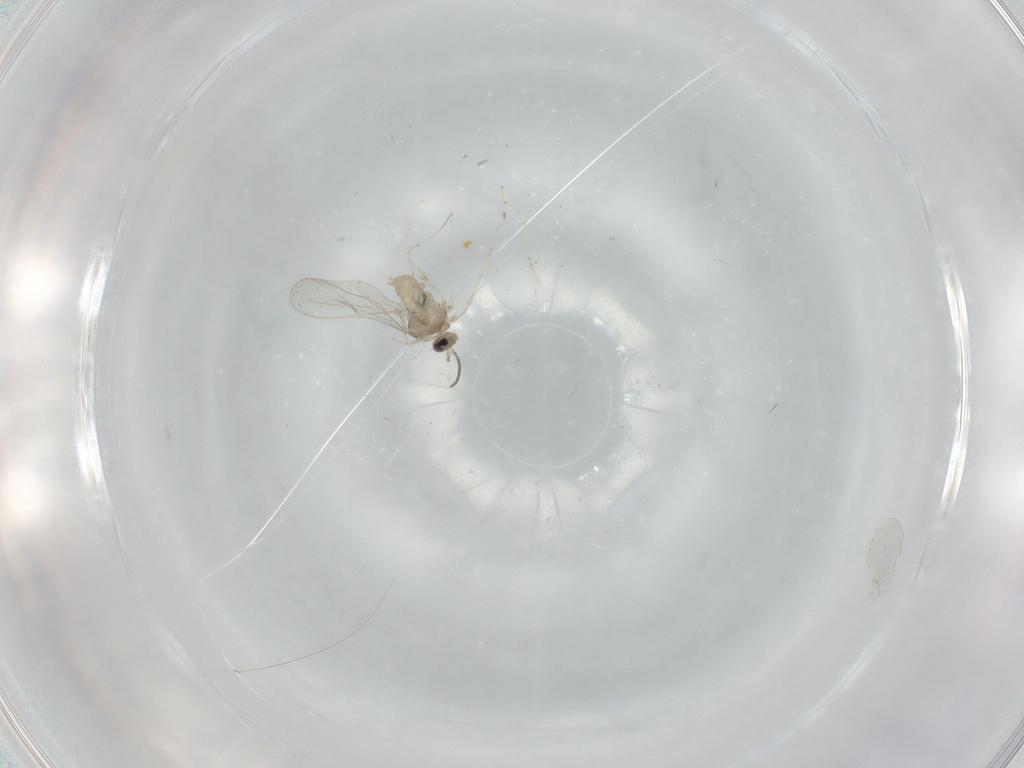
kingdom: Animalia
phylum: Arthropoda
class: Insecta
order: Diptera
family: Cecidomyiidae
